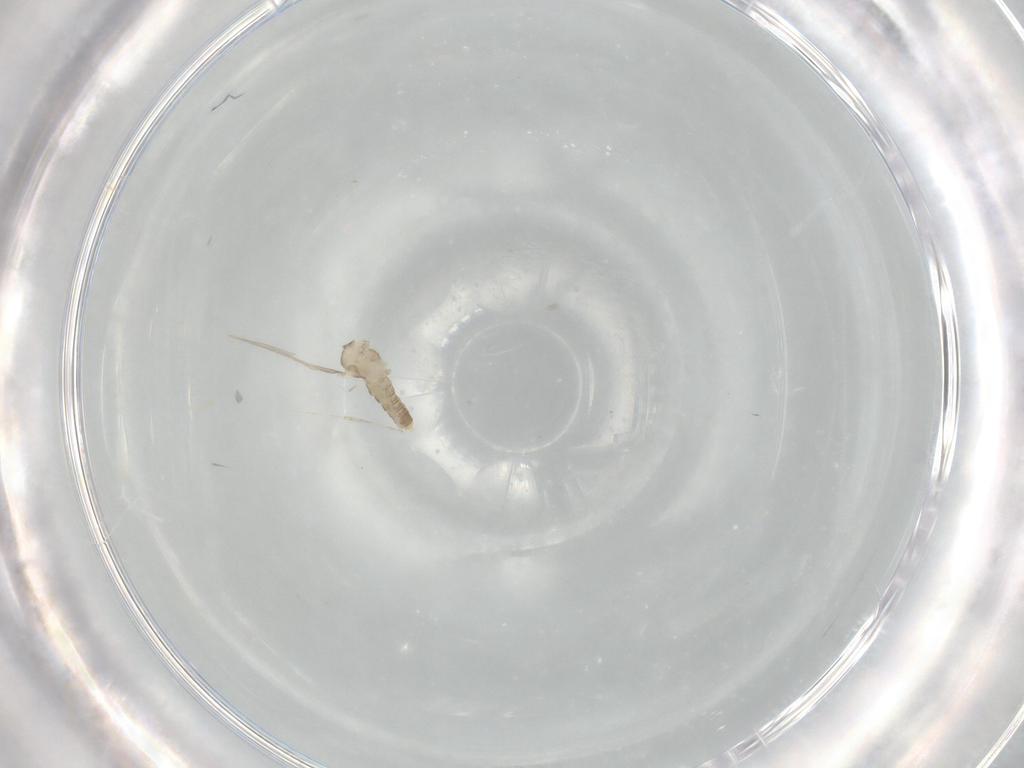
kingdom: Animalia
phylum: Arthropoda
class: Insecta
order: Diptera
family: Cecidomyiidae
